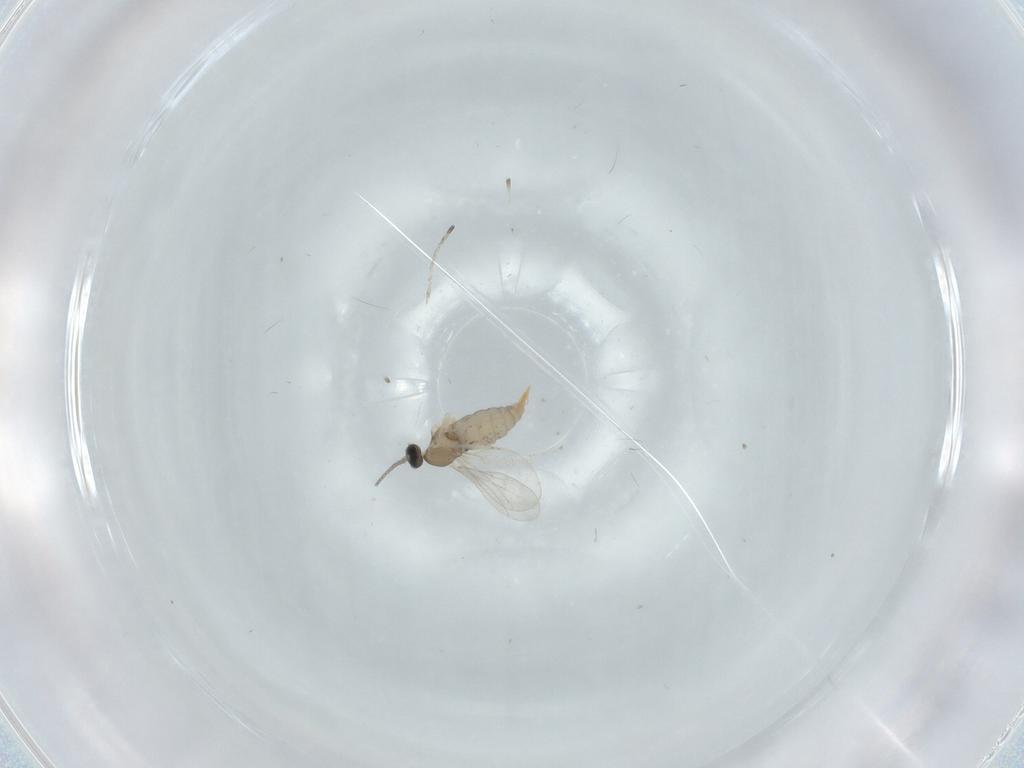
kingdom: Animalia
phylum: Arthropoda
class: Insecta
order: Diptera
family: Cecidomyiidae
